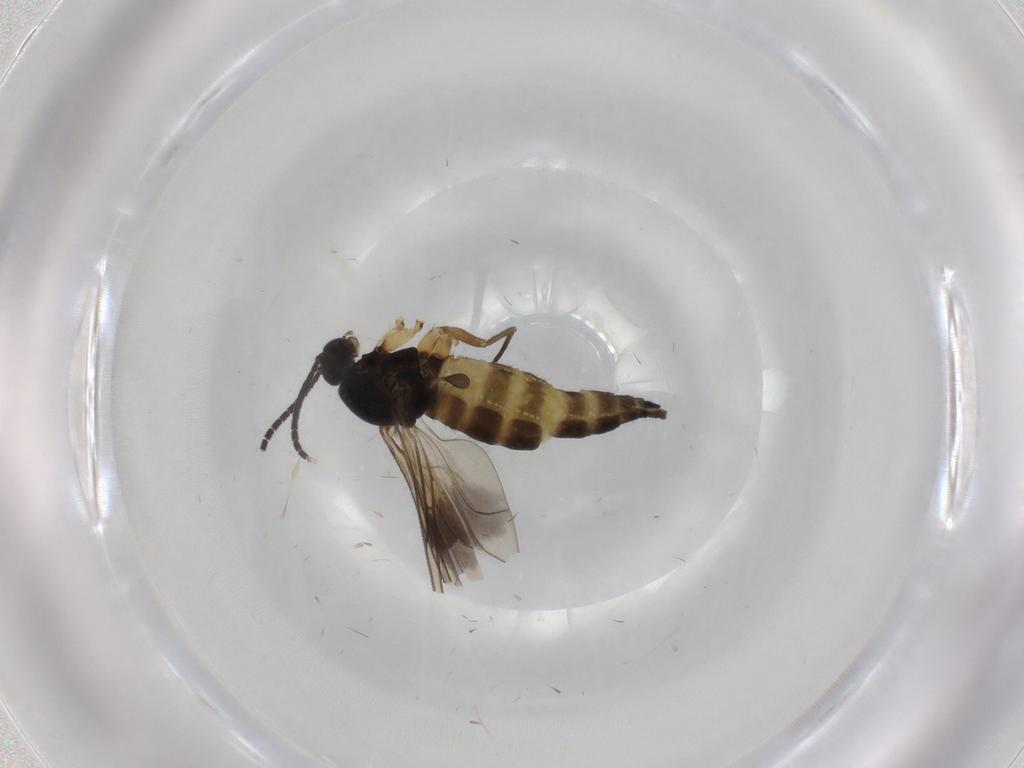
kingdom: Animalia
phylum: Arthropoda
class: Insecta
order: Diptera
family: Sciaridae
